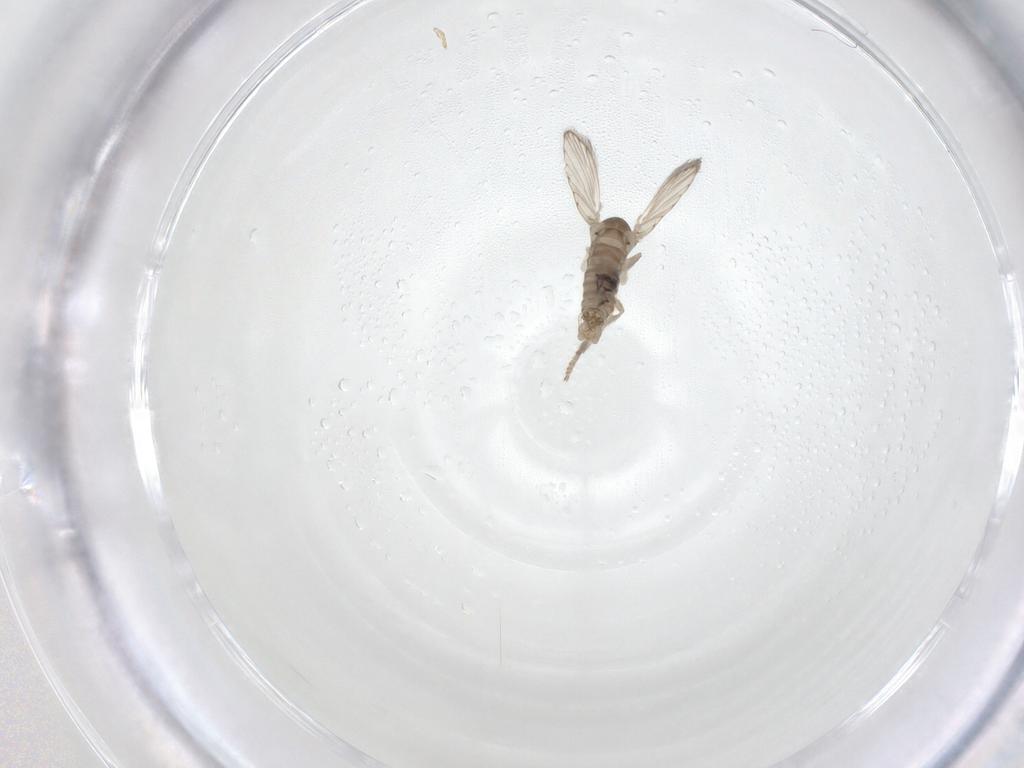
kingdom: Animalia
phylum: Arthropoda
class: Insecta
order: Diptera
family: Psychodidae
